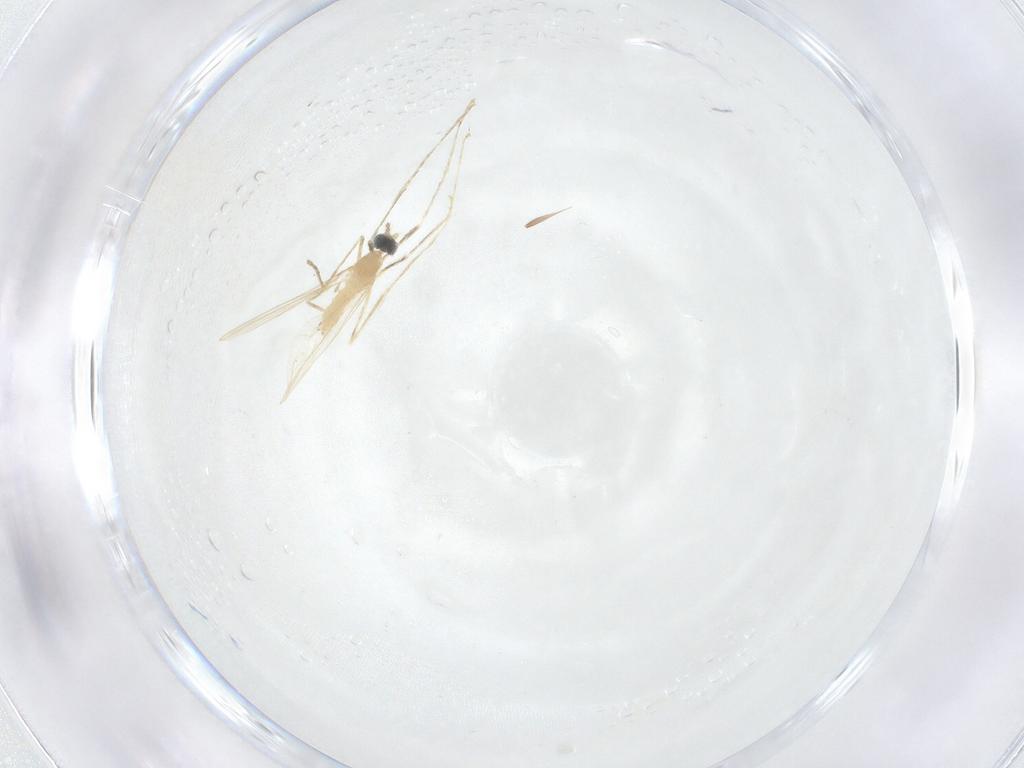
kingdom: Animalia
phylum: Arthropoda
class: Insecta
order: Diptera
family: Cecidomyiidae
